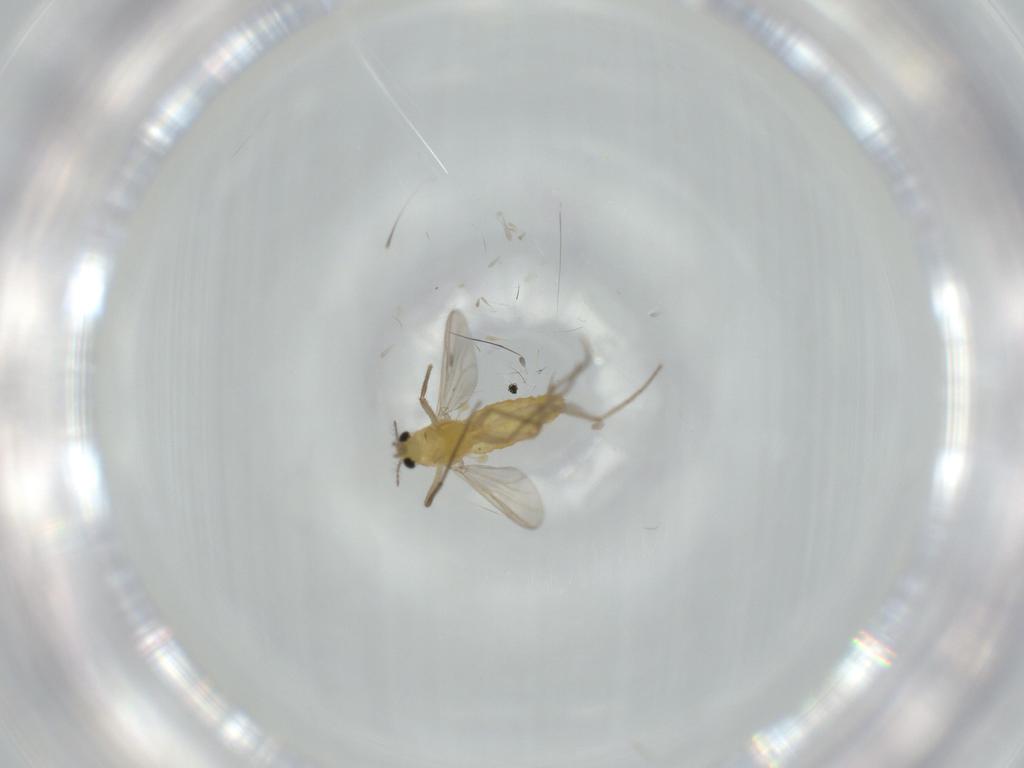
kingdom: Animalia
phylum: Arthropoda
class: Insecta
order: Diptera
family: Chironomidae
